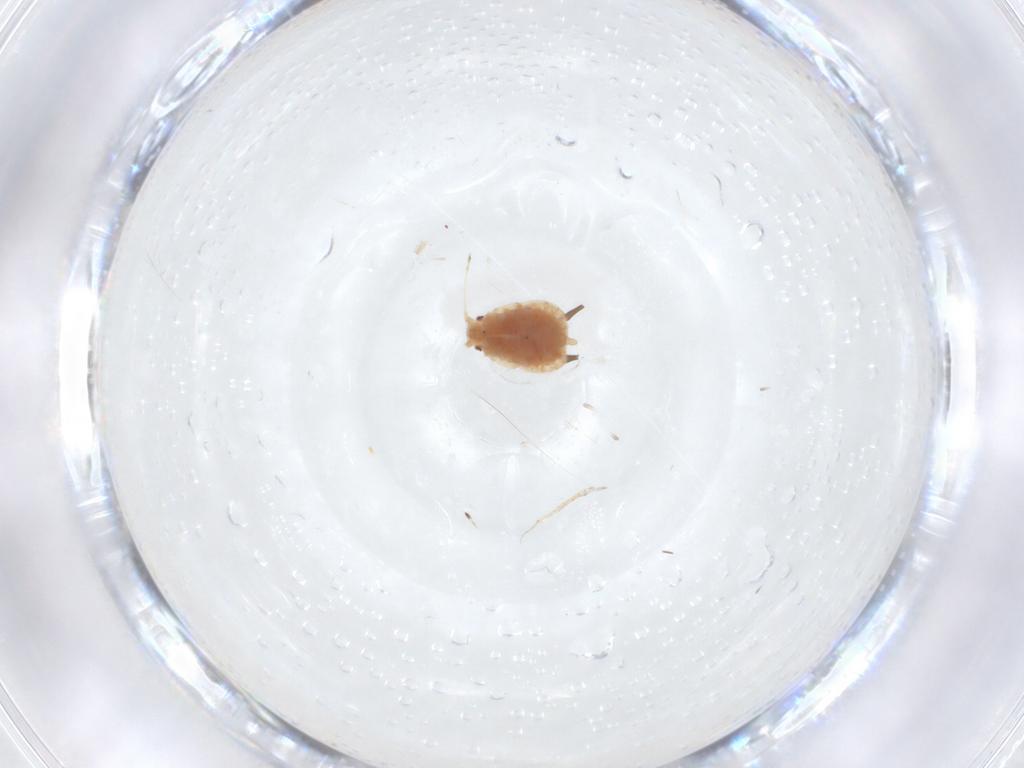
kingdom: Animalia
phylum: Arthropoda
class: Insecta
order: Hemiptera
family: Aphididae
